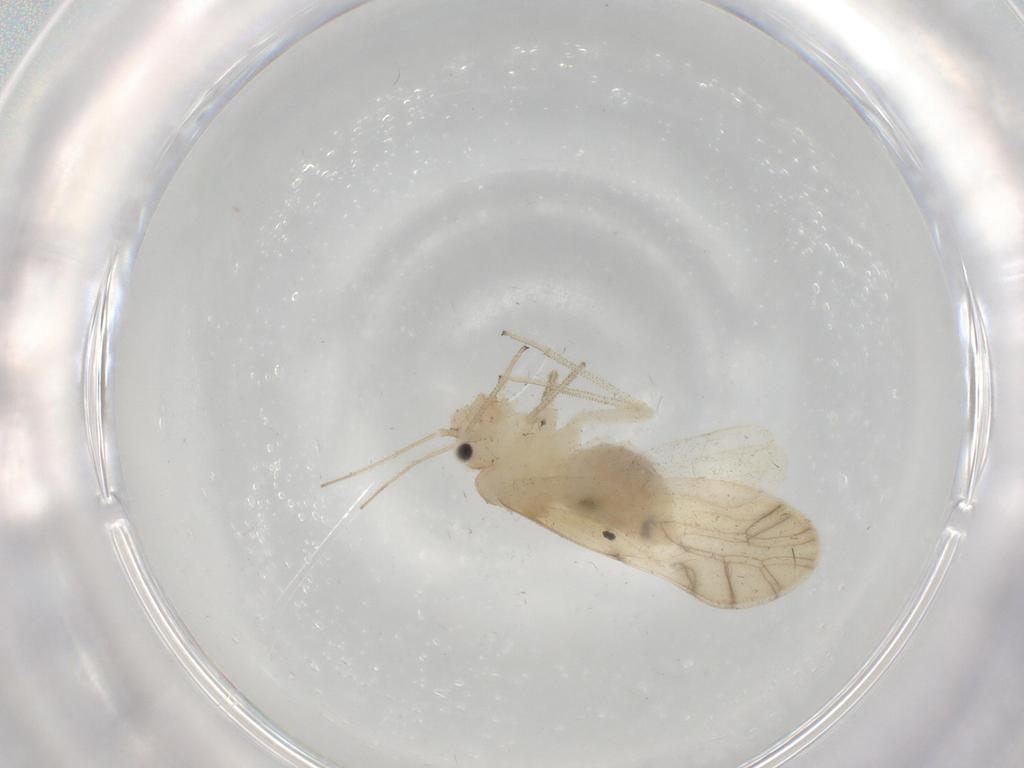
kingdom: Animalia
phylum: Arthropoda
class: Insecta
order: Psocodea
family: Caeciliusidae
